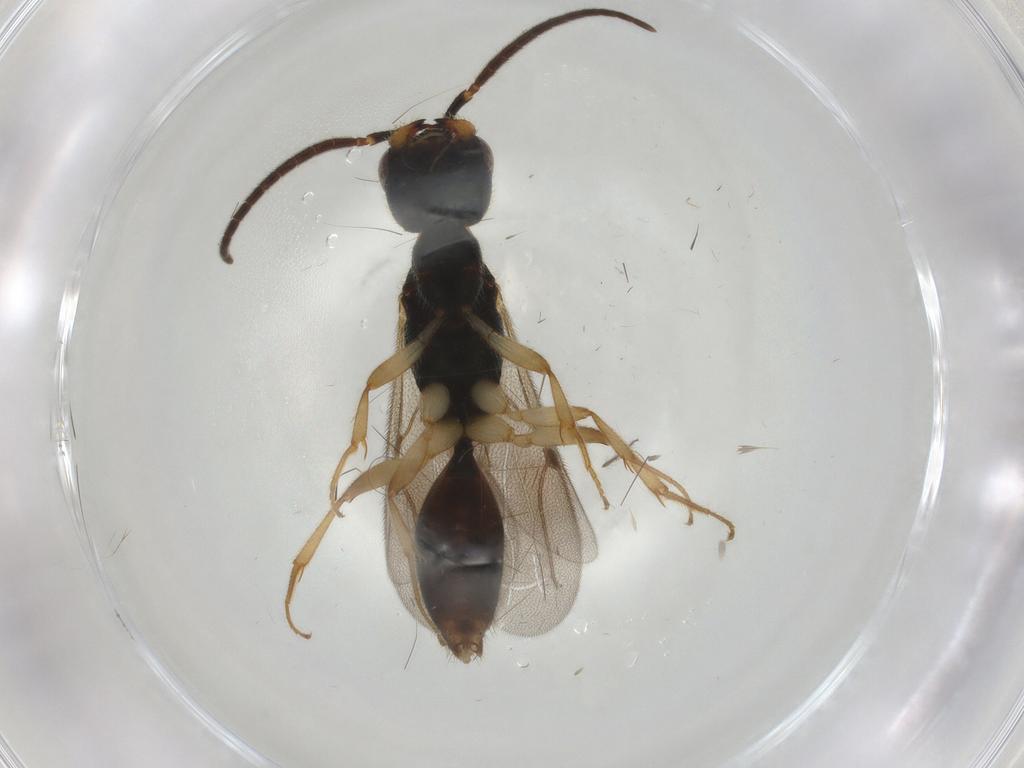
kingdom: Animalia
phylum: Arthropoda
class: Insecta
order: Hymenoptera
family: Bethylidae
